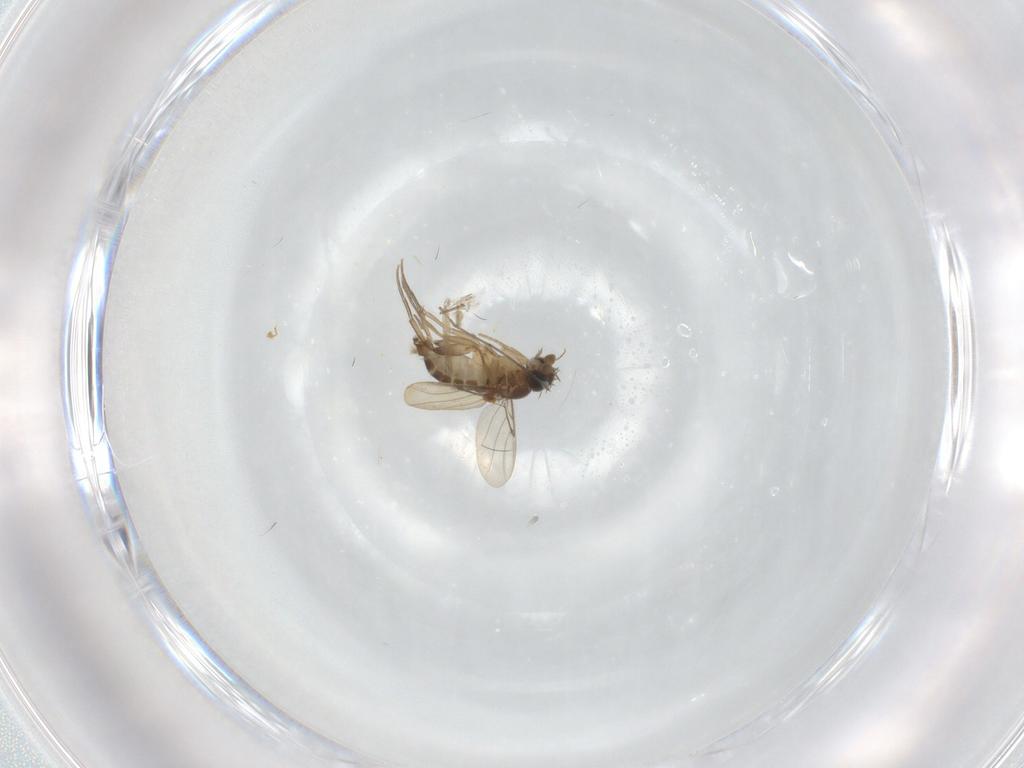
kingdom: Animalia
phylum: Arthropoda
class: Insecta
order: Diptera
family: Phoridae
